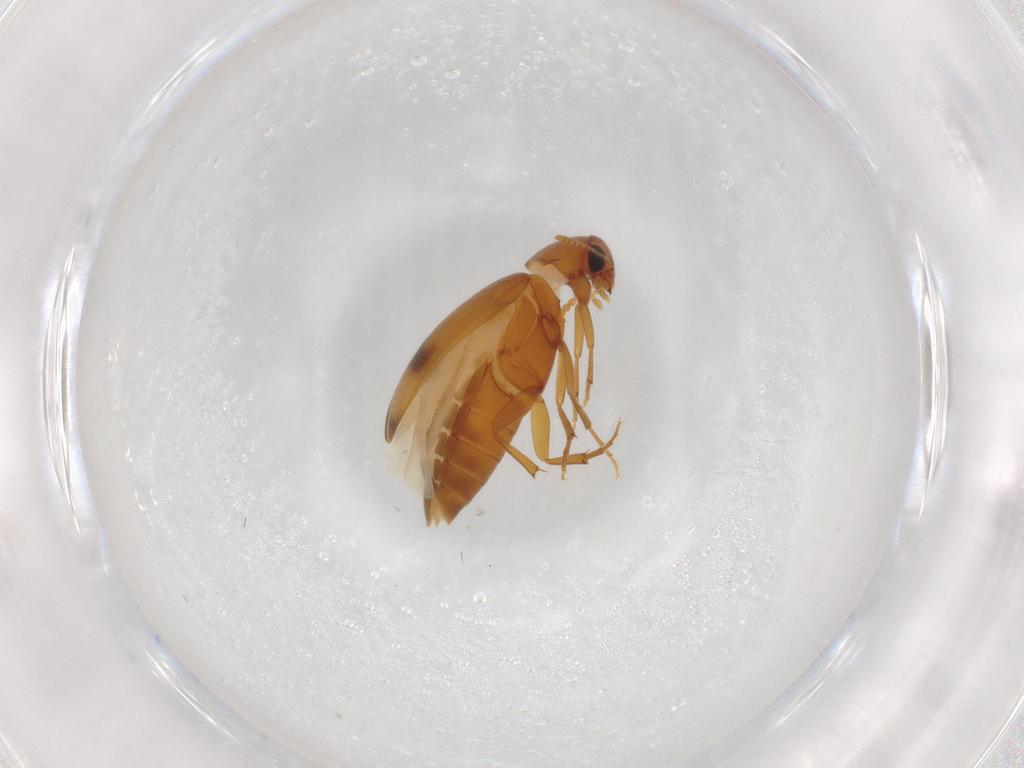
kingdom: Animalia
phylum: Arthropoda
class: Insecta
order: Coleoptera
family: Scraptiidae
